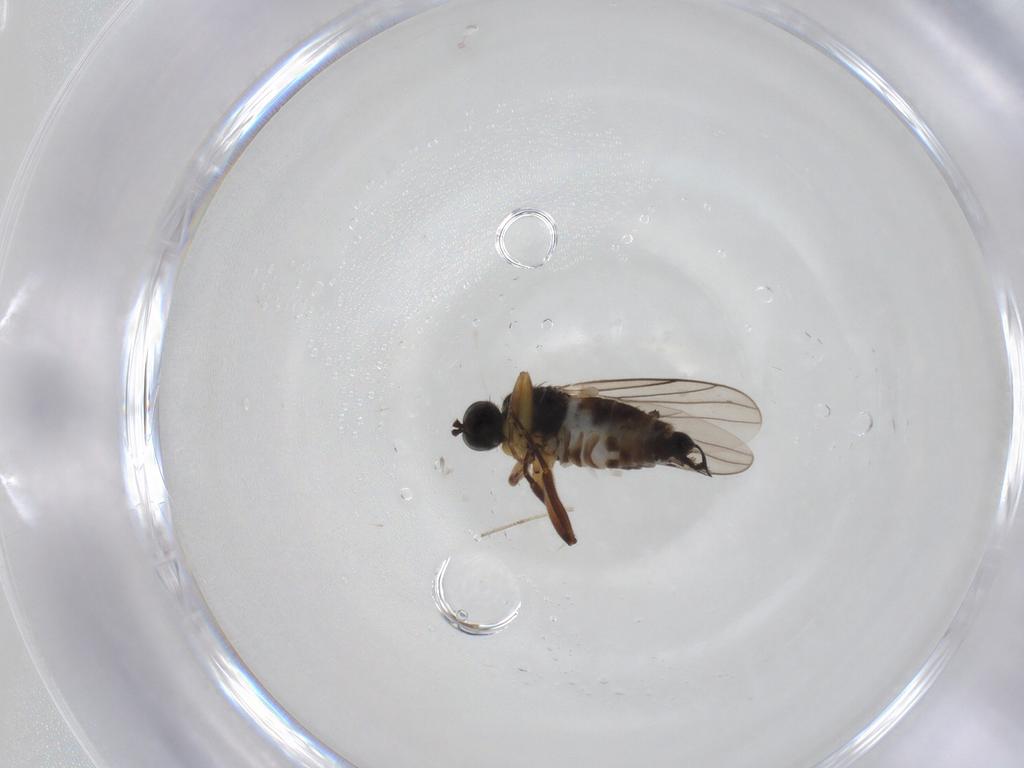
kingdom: Animalia
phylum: Arthropoda
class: Insecta
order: Diptera
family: Hybotidae
